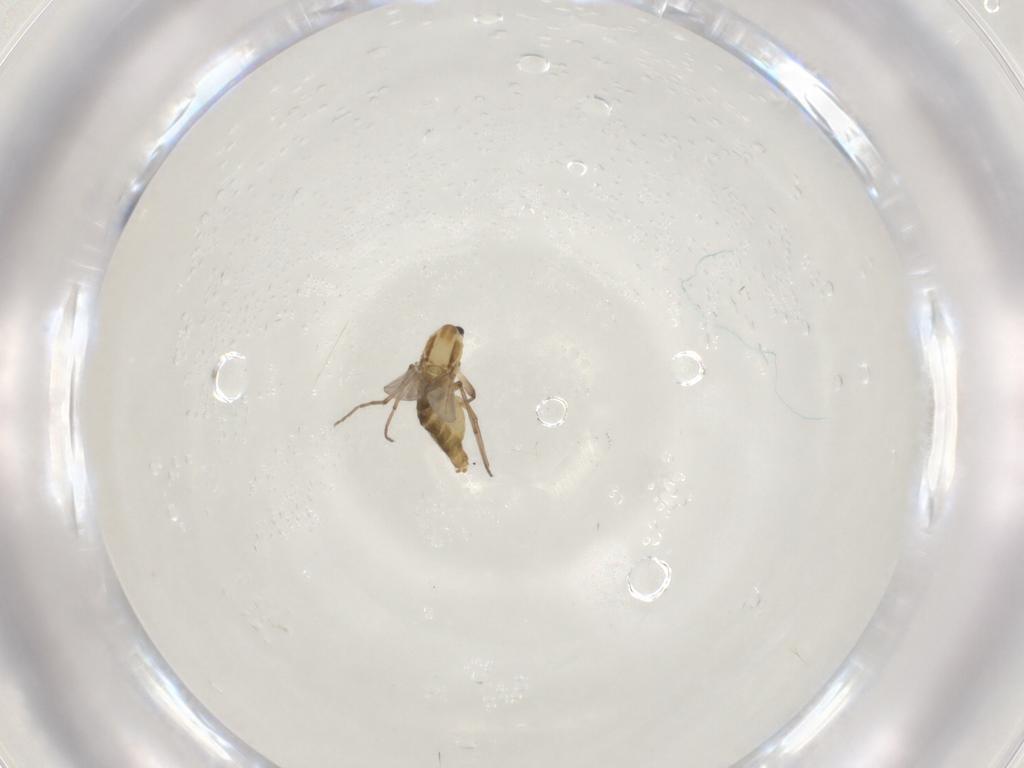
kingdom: Animalia
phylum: Arthropoda
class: Insecta
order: Diptera
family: Chironomidae
